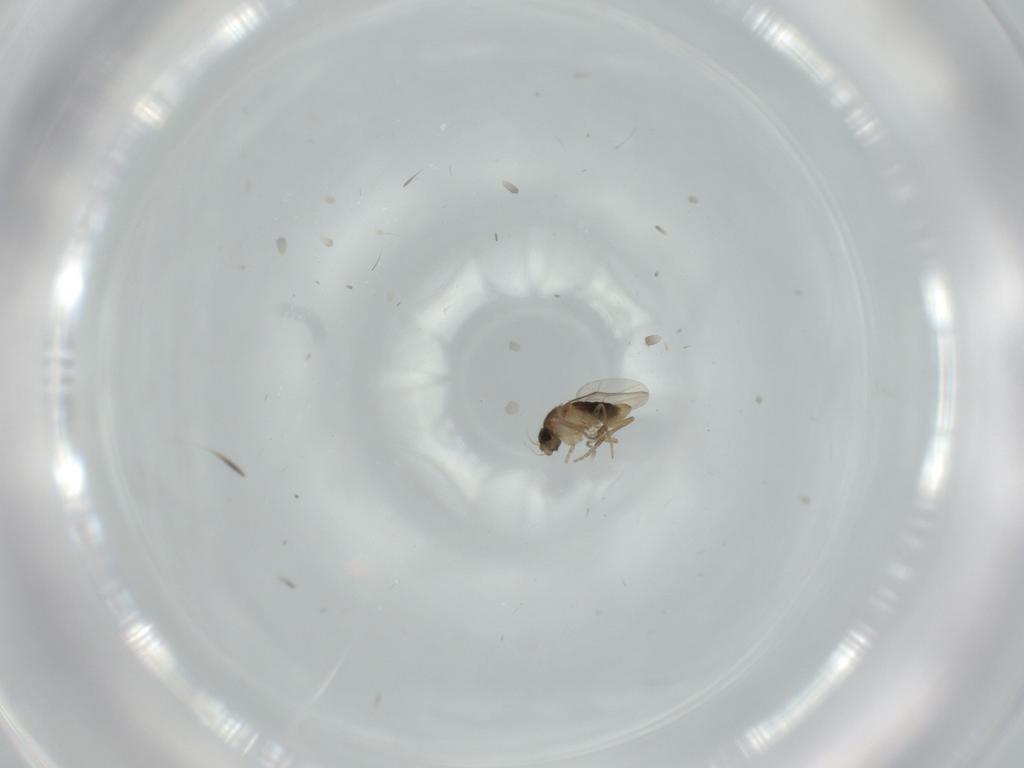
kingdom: Animalia
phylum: Arthropoda
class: Insecta
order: Diptera
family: Phoridae
